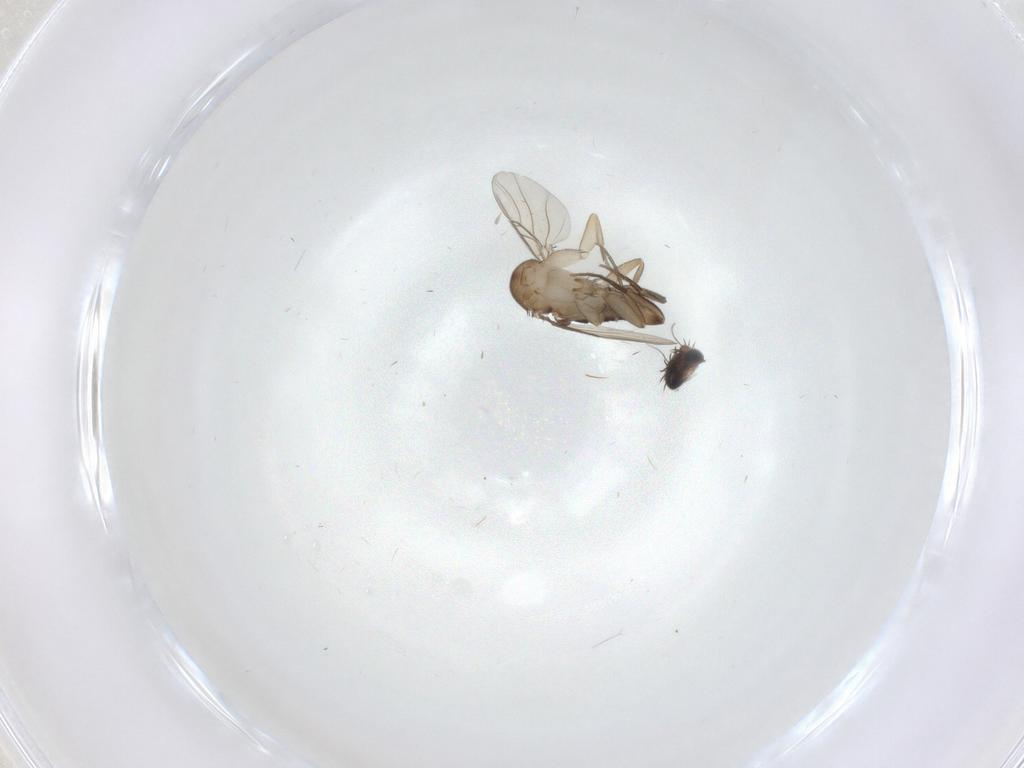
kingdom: Animalia
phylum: Arthropoda
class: Insecta
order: Diptera
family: Phoridae
